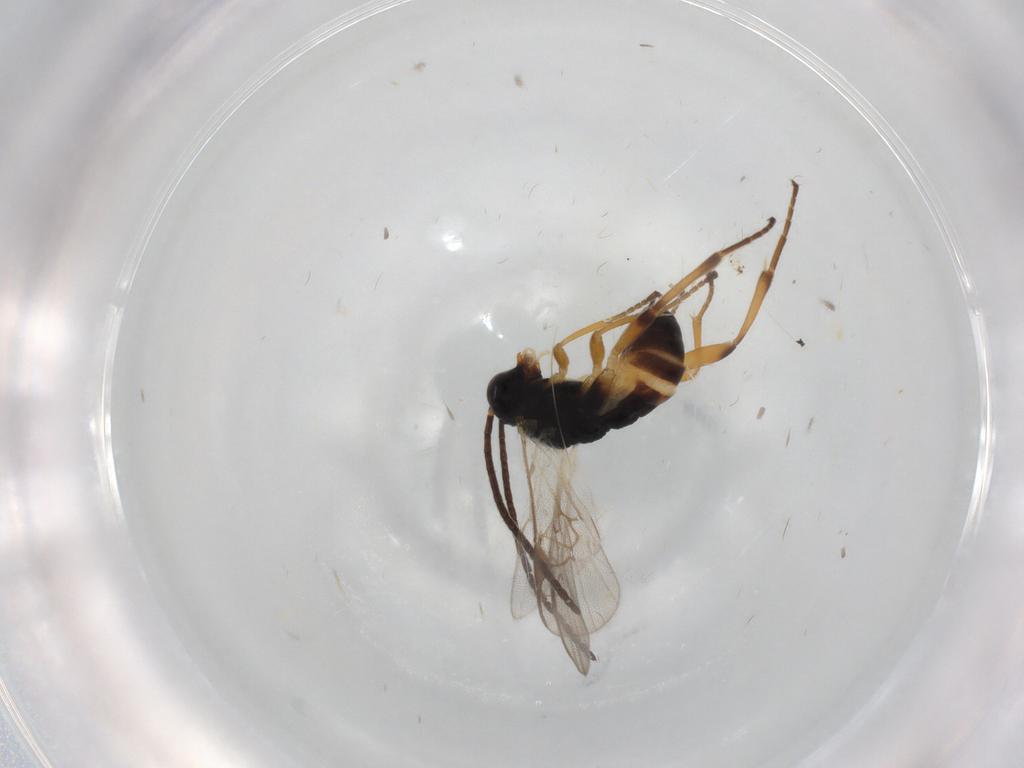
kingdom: Animalia
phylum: Arthropoda
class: Insecta
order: Hymenoptera
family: Braconidae
